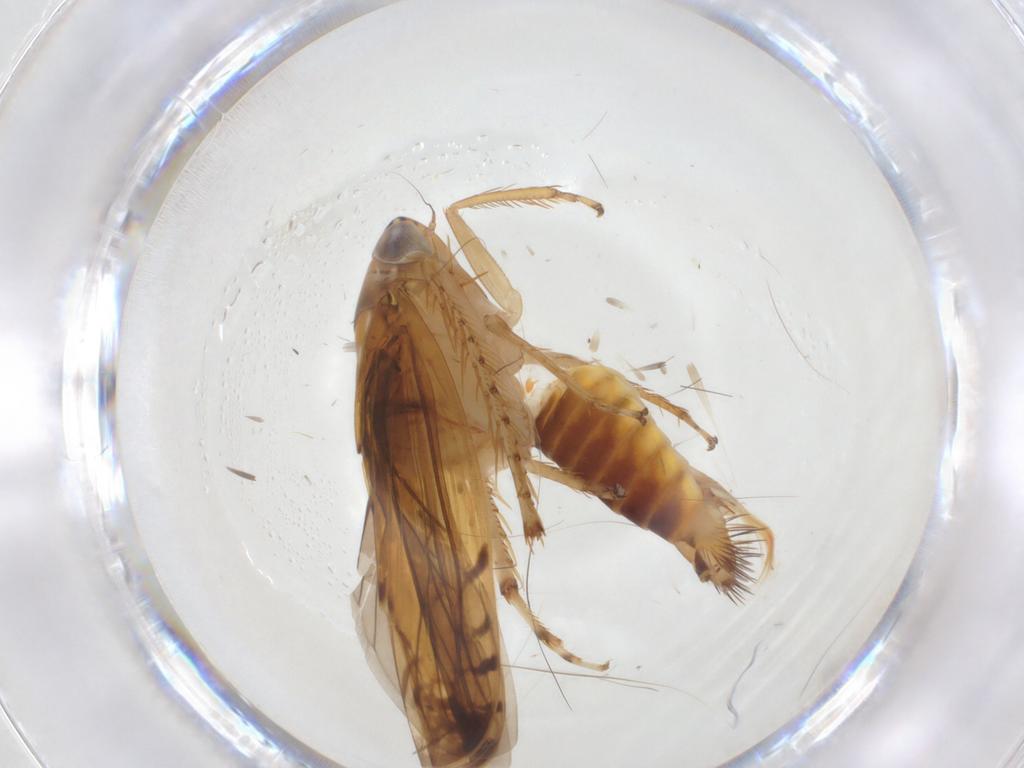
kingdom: Animalia
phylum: Arthropoda
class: Insecta
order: Hemiptera
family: Cicadellidae
